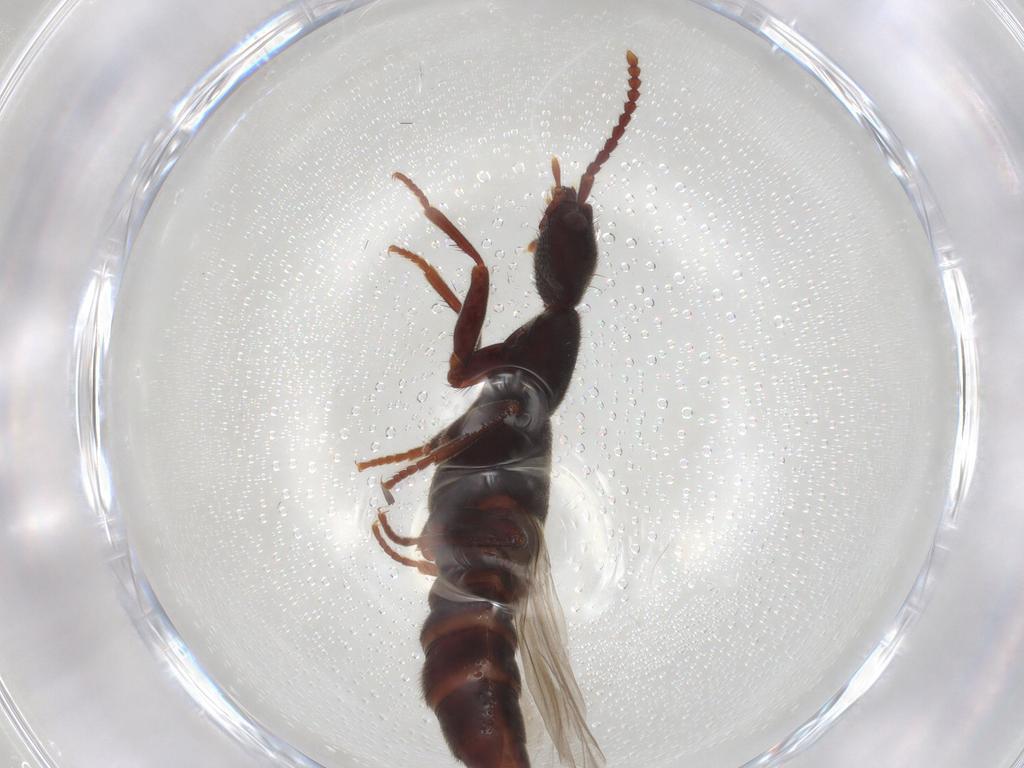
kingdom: Animalia
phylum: Arthropoda
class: Insecta
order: Coleoptera
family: Staphylinidae
